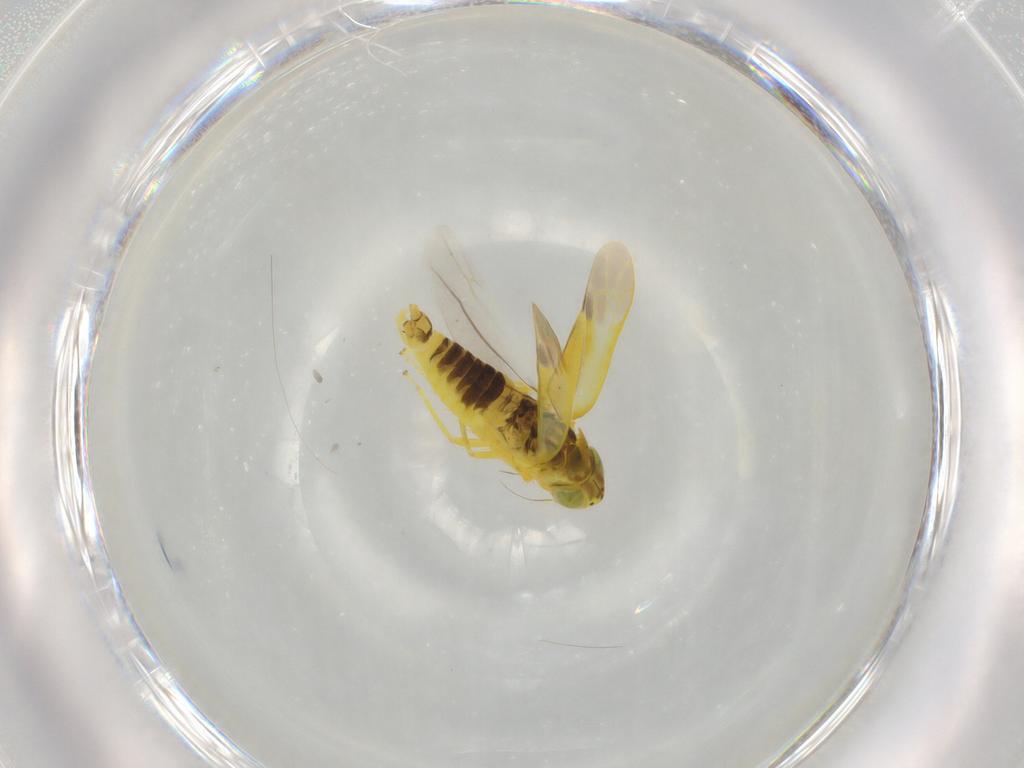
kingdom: Animalia
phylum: Arthropoda
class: Insecta
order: Hemiptera
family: Cicadellidae
